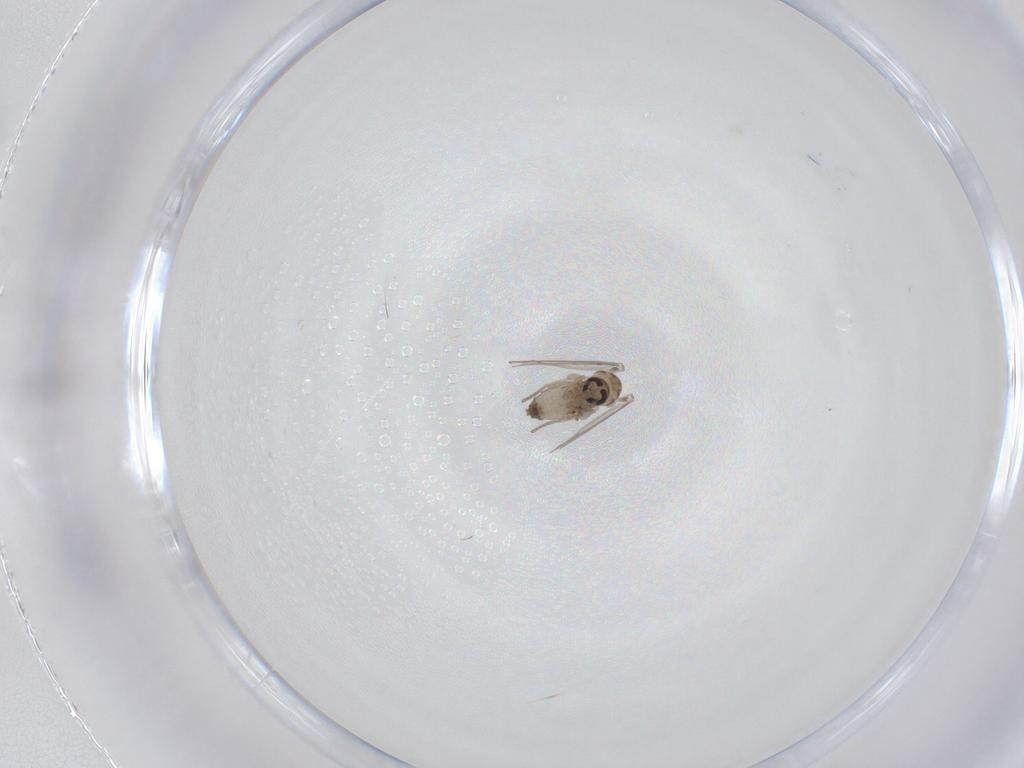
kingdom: Animalia
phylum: Arthropoda
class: Insecta
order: Diptera
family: Psychodidae
